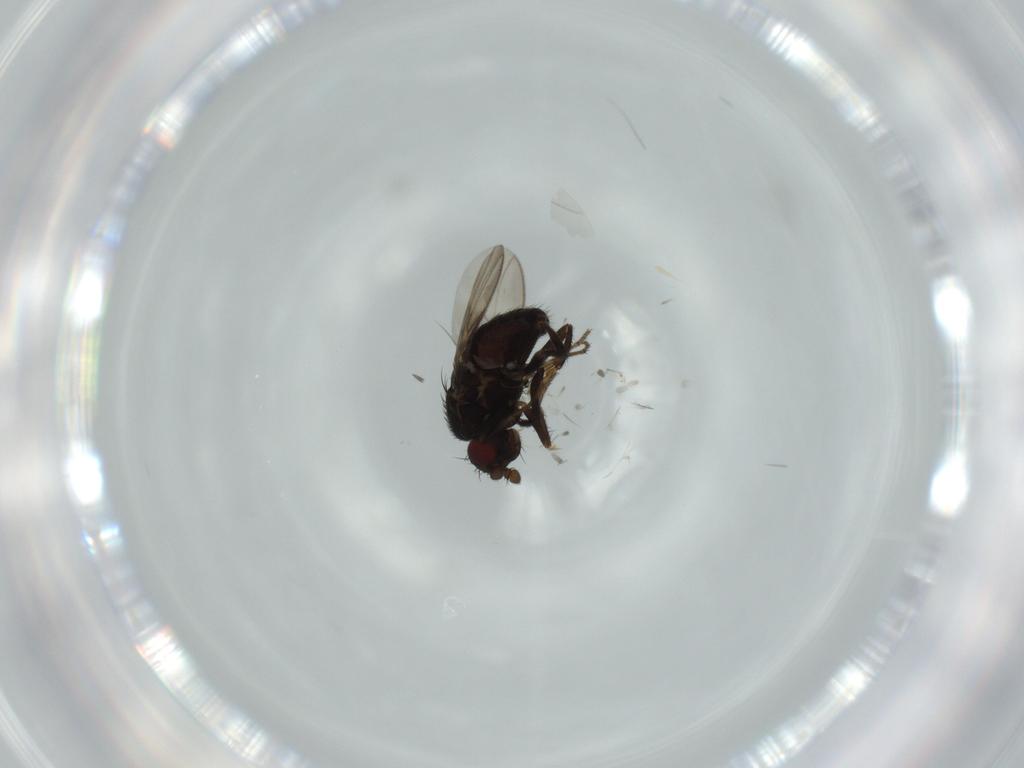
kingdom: Animalia
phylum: Arthropoda
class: Insecta
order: Diptera
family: Sphaeroceridae
